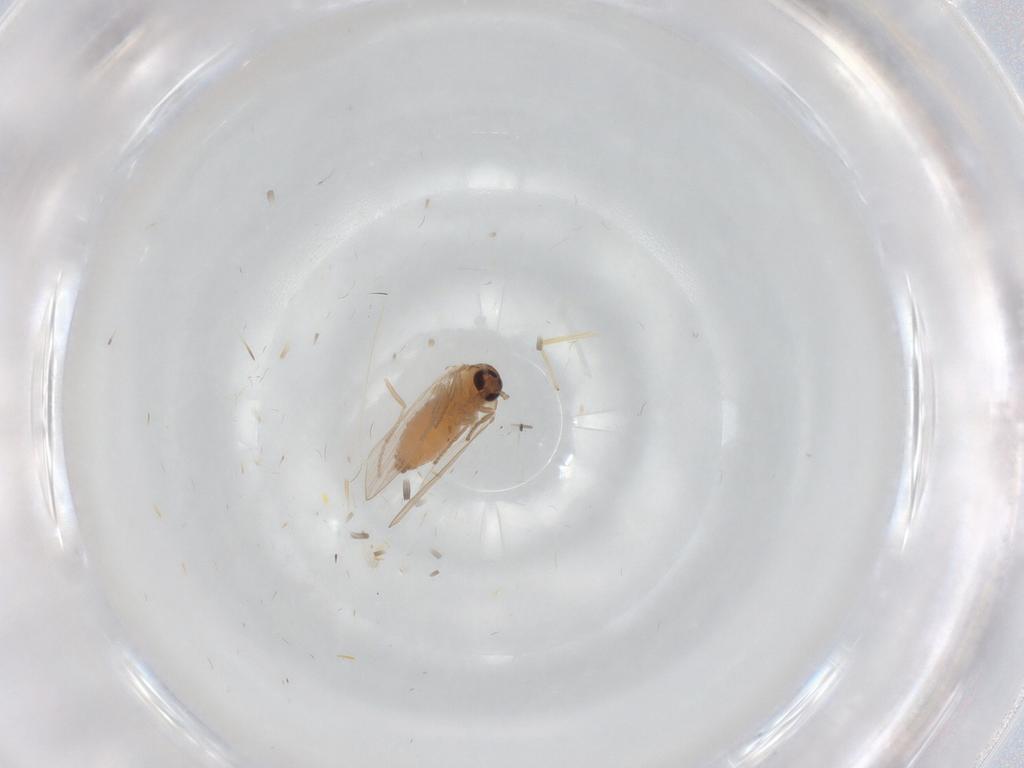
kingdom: Animalia
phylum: Arthropoda
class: Insecta
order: Diptera
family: Psychodidae
